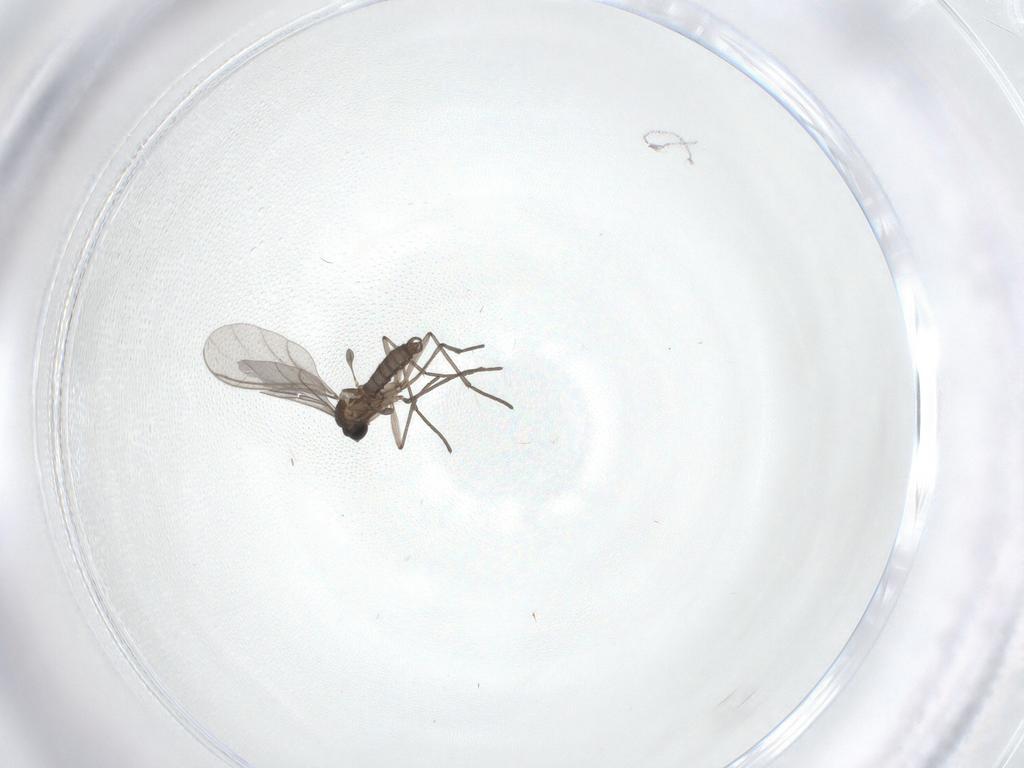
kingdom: Animalia
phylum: Arthropoda
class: Insecta
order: Diptera
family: Sciaridae
